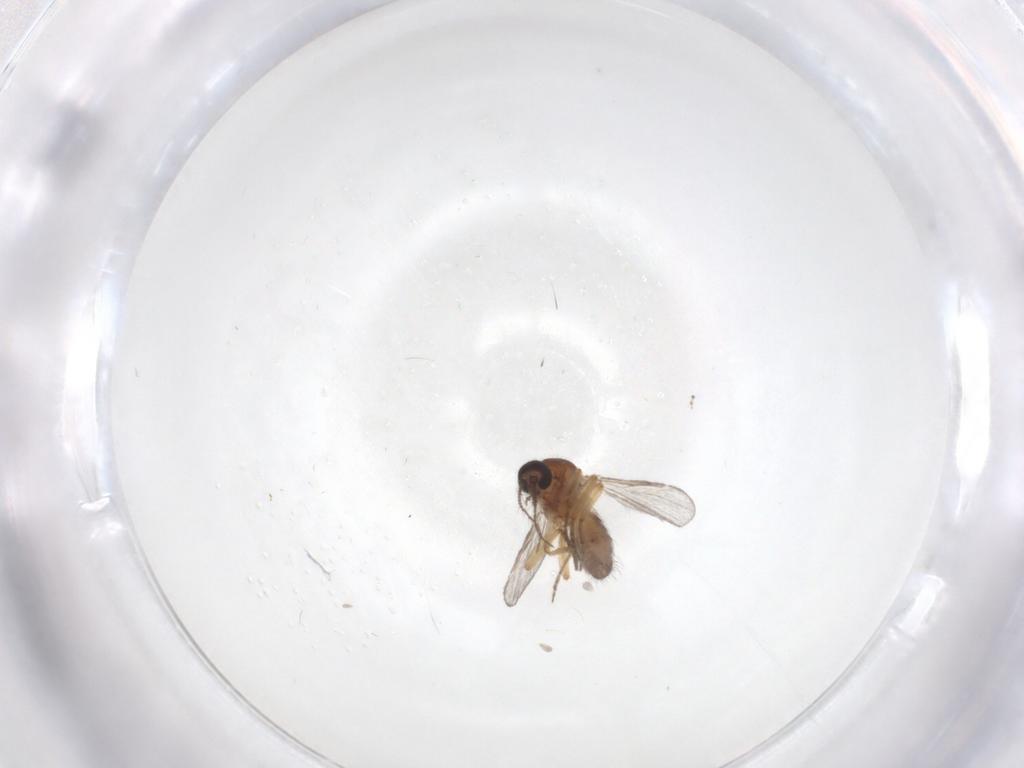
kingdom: Animalia
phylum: Arthropoda
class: Insecta
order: Diptera
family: Ceratopogonidae
